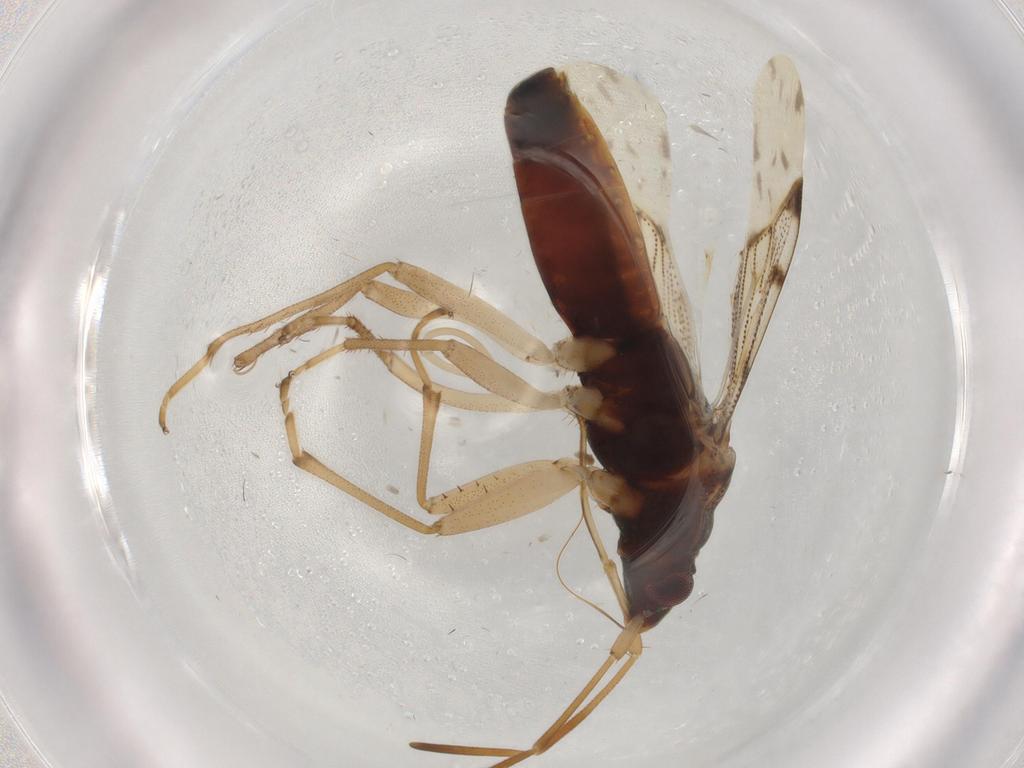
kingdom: Animalia
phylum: Arthropoda
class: Insecta
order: Hemiptera
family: Rhyparochromidae
